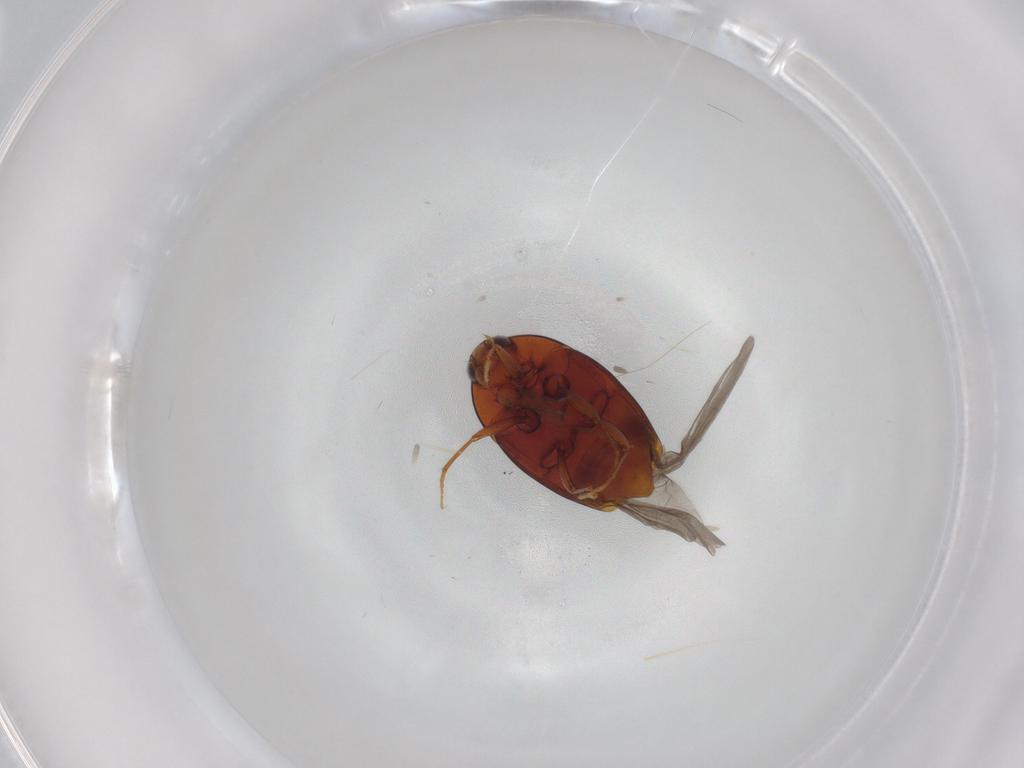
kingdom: Animalia
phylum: Arthropoda
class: Insecta
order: Coleoptera
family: Staphylinidae
